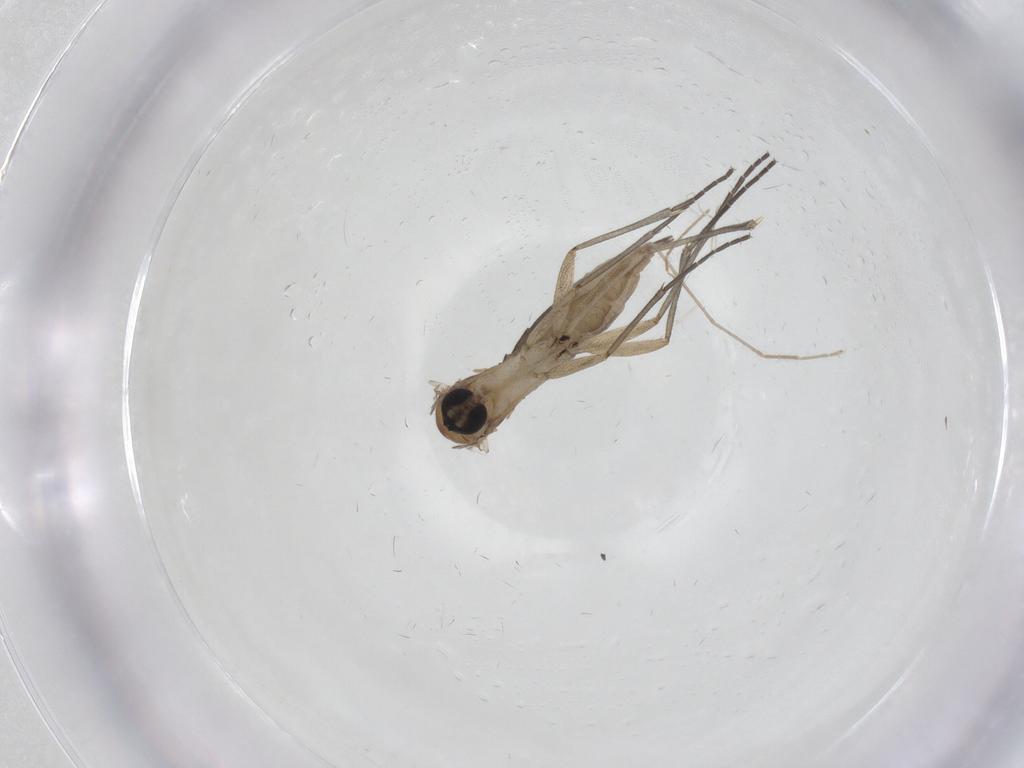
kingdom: Animalia
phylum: Arthropoda
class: Insecta
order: Diptera
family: Sciaridae
